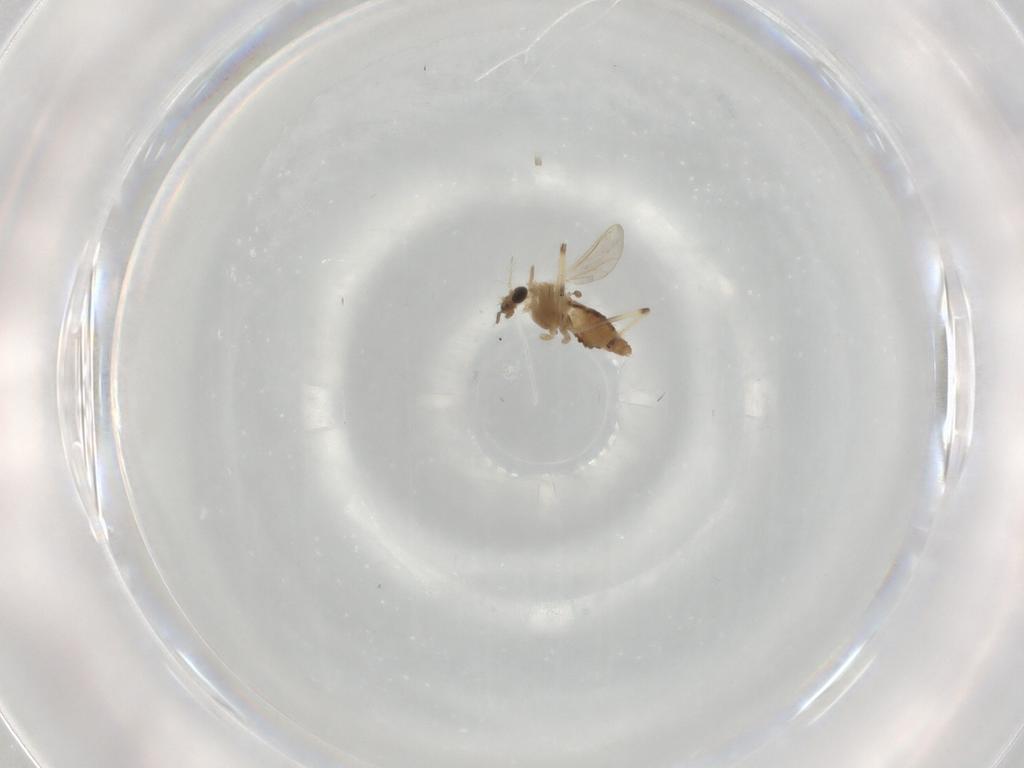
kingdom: Animalia
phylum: Arthropoda
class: Insecta
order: Diptera
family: Chironomidae
